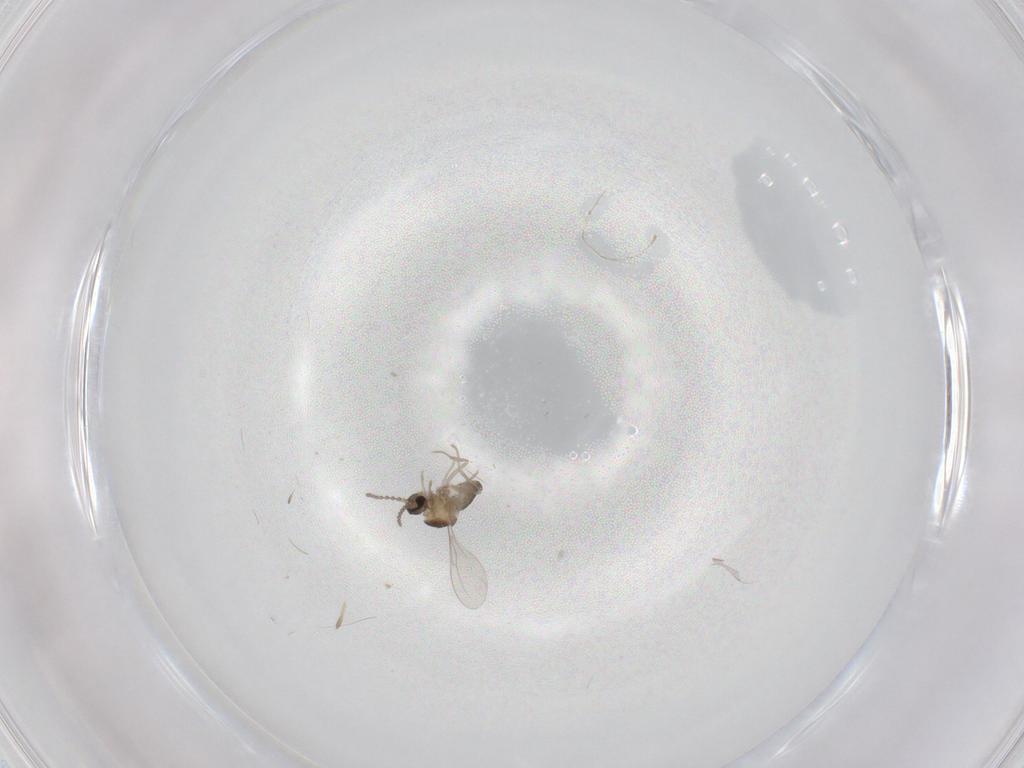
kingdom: Animalia
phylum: Arthropoda
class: Insecta
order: Diptera
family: Cecidomyiidae
